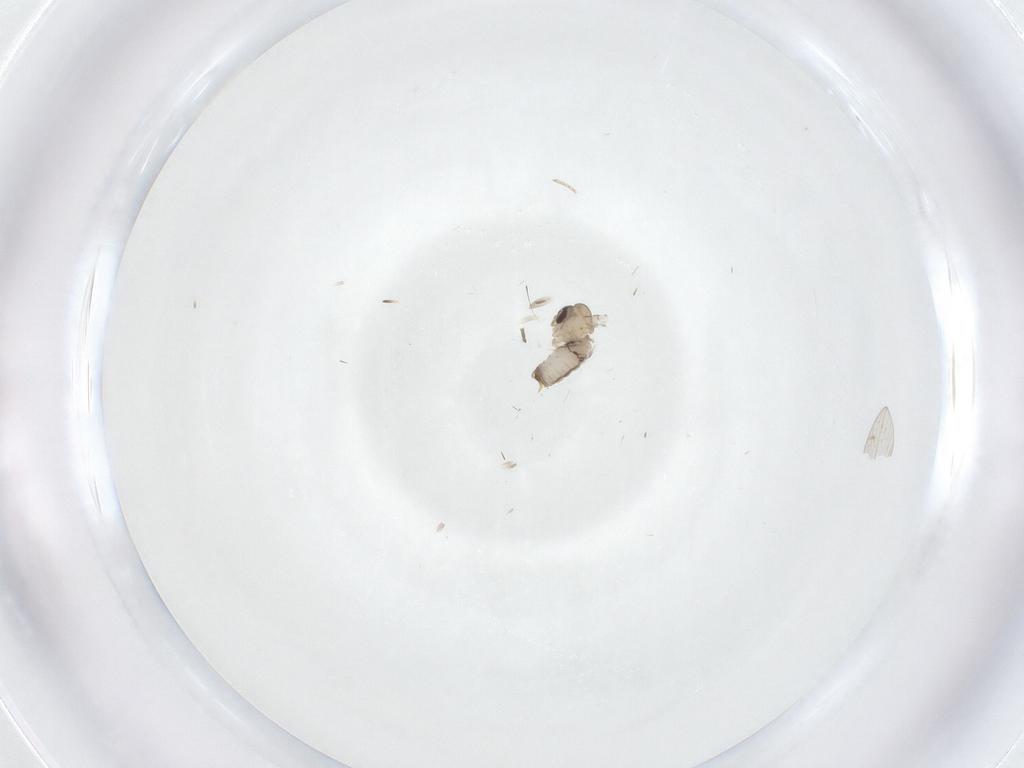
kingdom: Animalia
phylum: Arthropoda
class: Insecta
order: Diptera
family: Psychodidae
